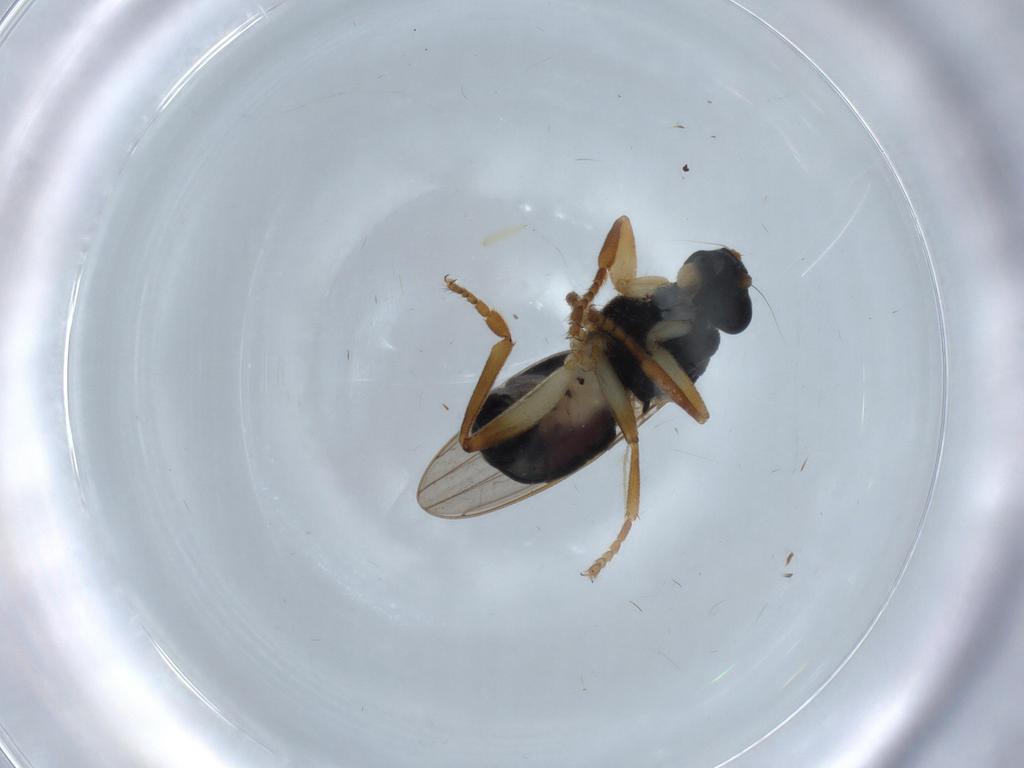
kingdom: Animalia
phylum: Arthropoda
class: Insecta
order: Diptera
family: Sphaeroceridae
